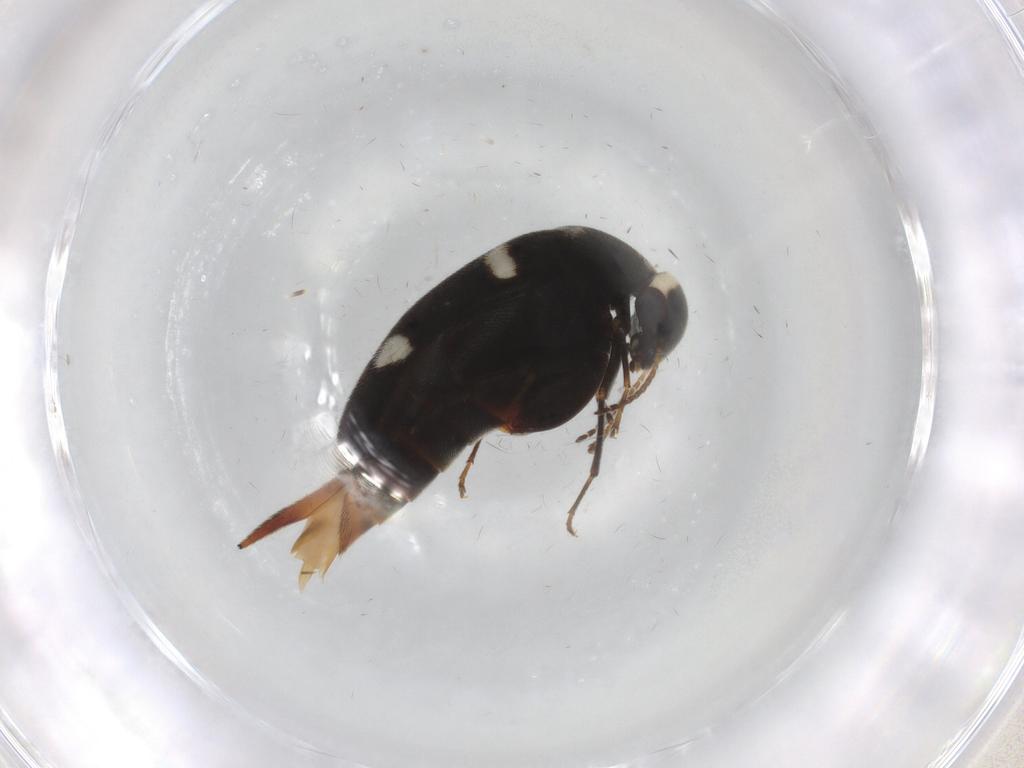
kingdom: Animalia
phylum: Arthropoda
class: Insecta
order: Coleoptera
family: Mordellidae
